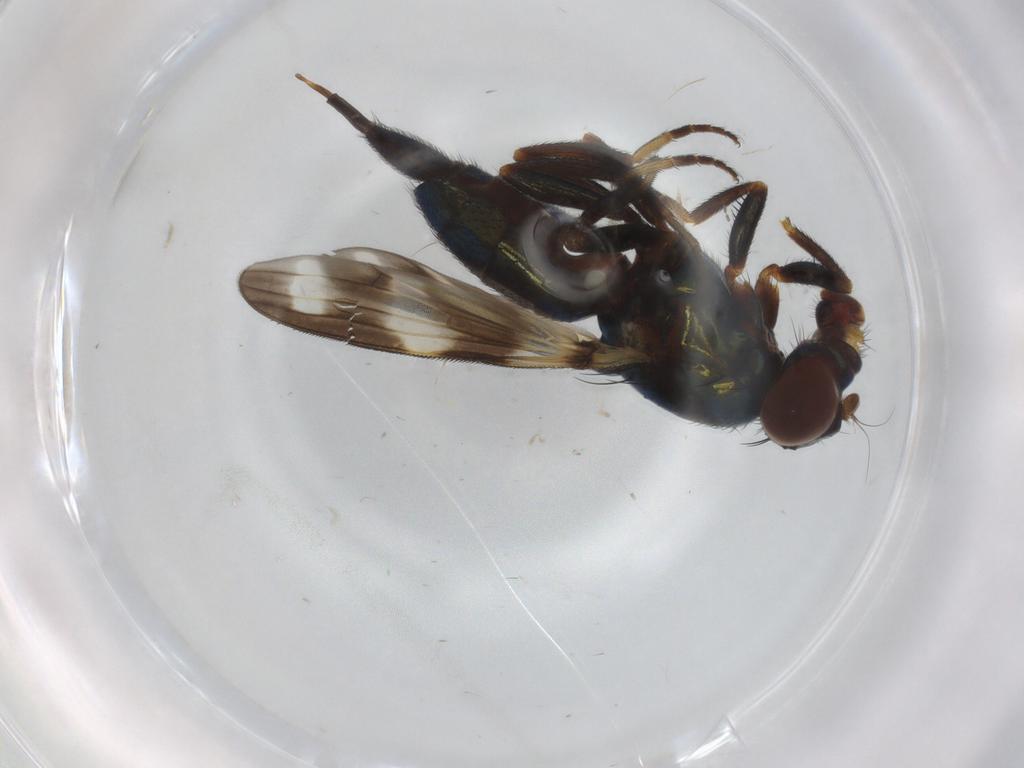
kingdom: Animalia
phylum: Arthropoda
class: Insecta
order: Diptera
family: Ulidiidae
